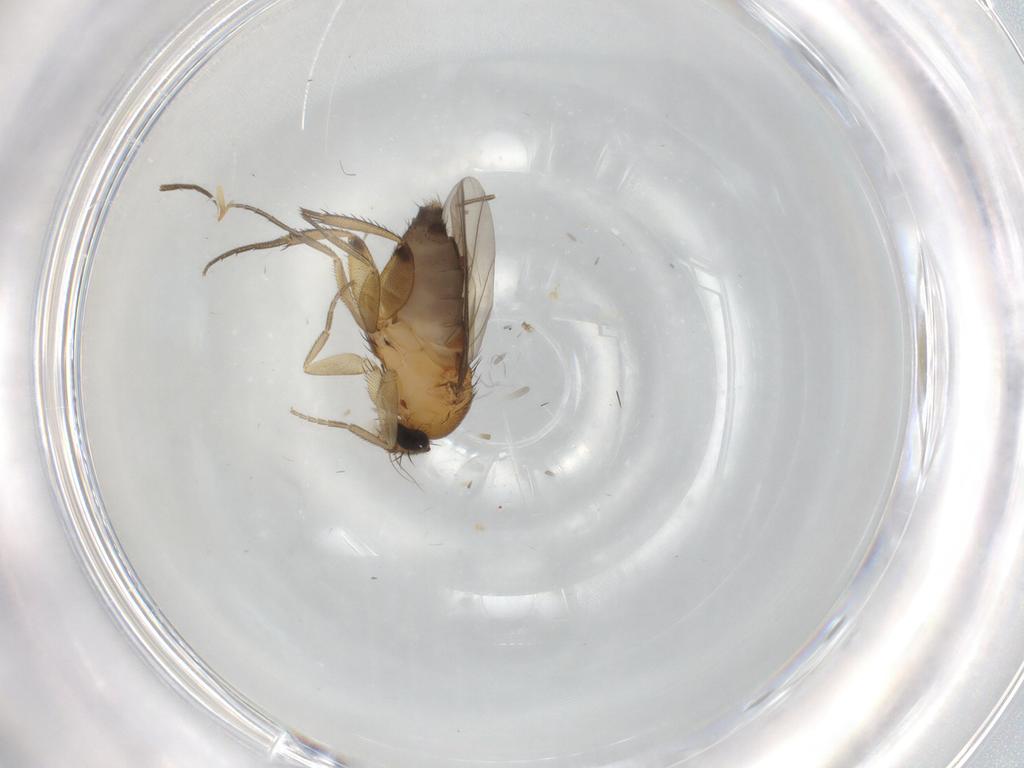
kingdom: Animalia
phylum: Arthropoda
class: Insecta
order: Diptera
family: Phoridae
